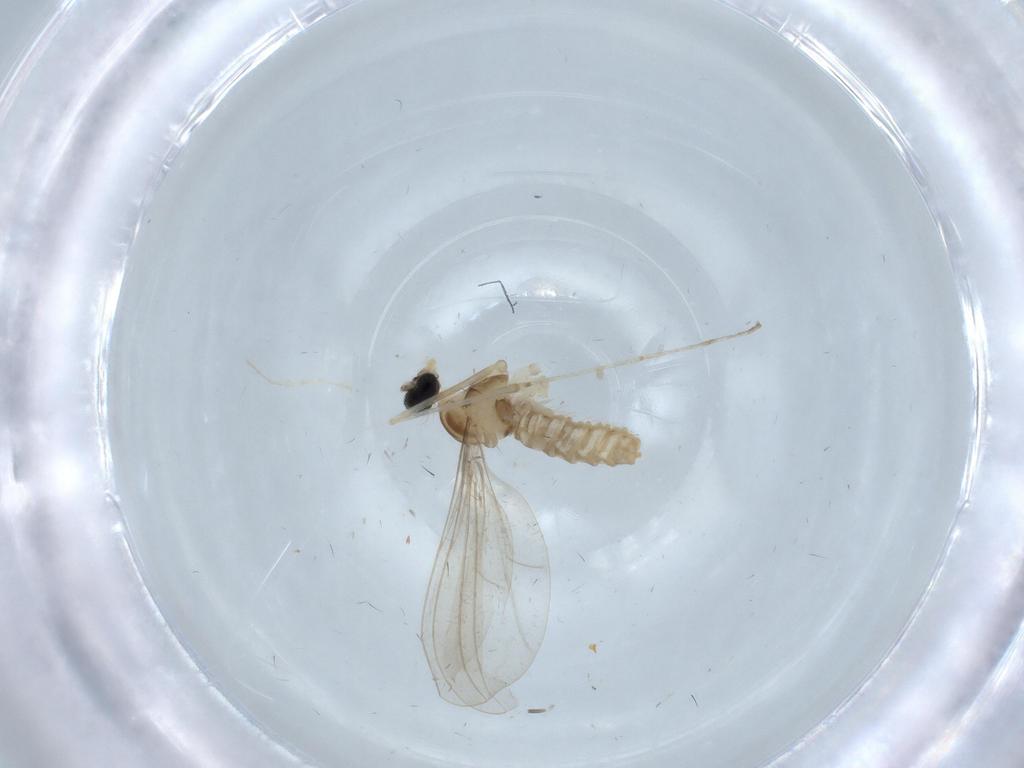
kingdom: Animalia
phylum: Arthropoda
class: Insecta
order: Diptera
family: Cecidomyiidae
